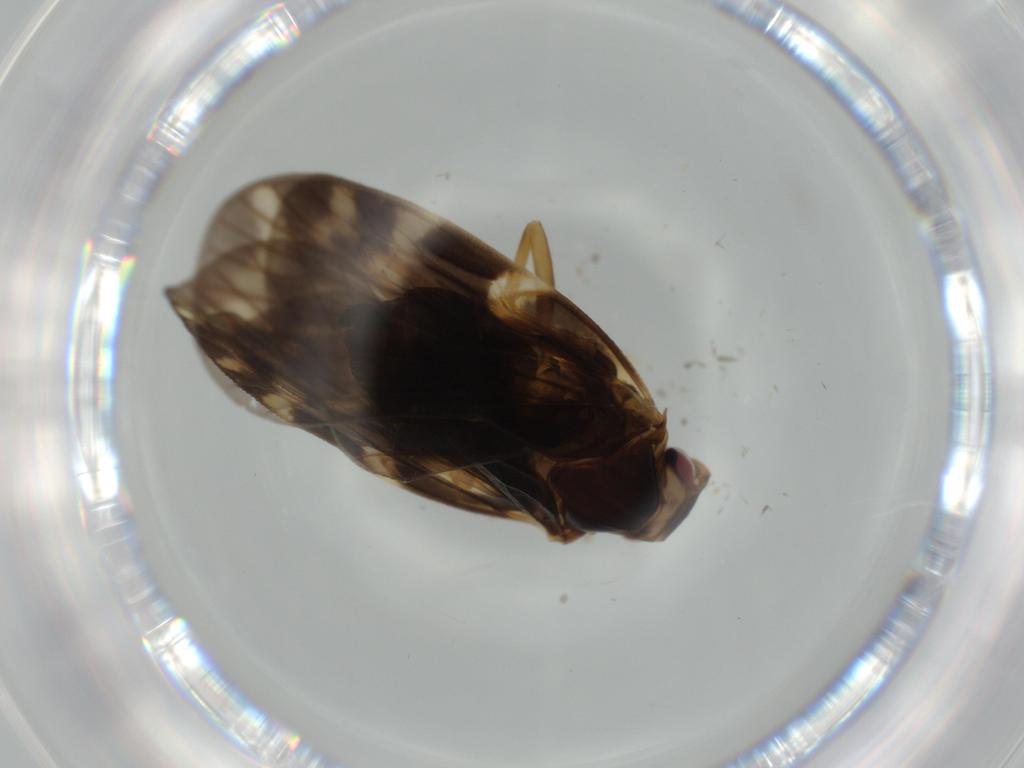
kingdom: Animalia
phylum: Arthropoda
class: Insecta
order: Hemiptera
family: Cixiidae
